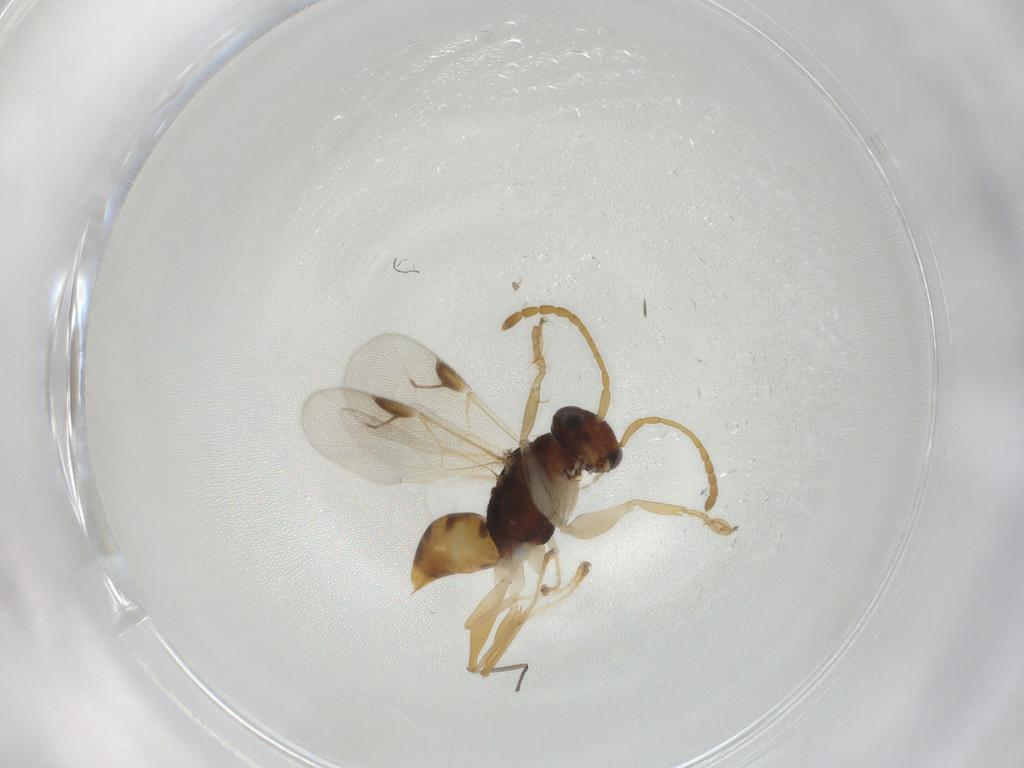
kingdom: Animalia
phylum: Arthropoda
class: Insecta
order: Hymenoptera
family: Dryinidae
